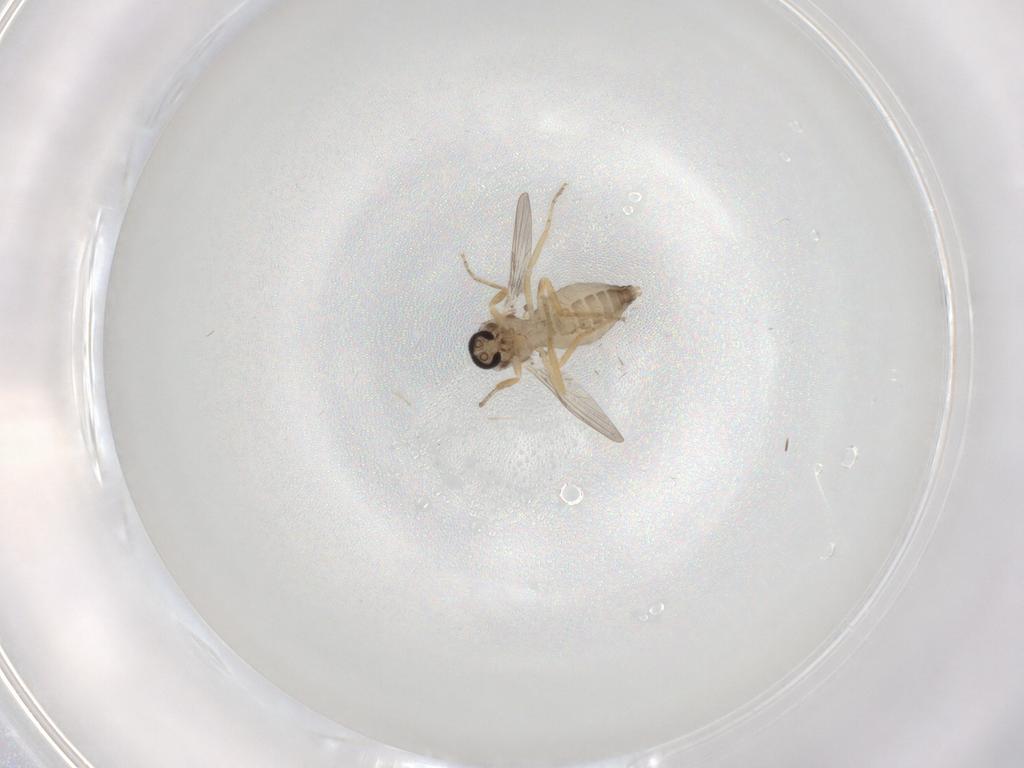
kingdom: Animalia
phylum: Arthropoda
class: Insecta
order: Diptera
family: Ceratopogonidae
